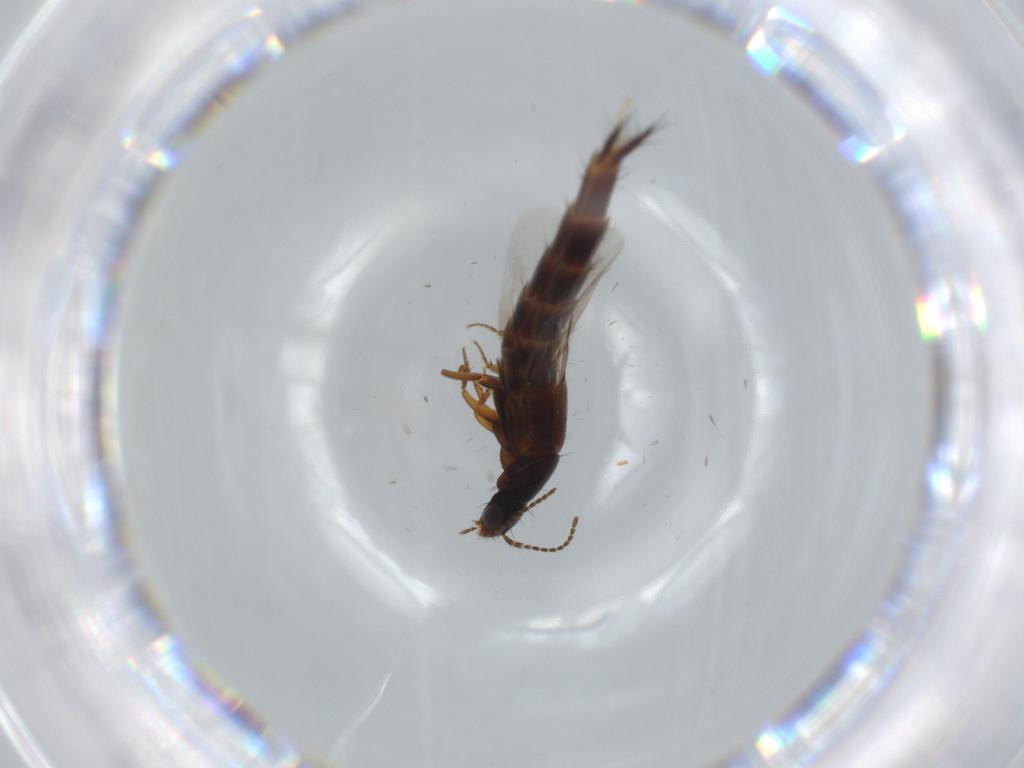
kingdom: Animalia
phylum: Arthropoda
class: Insecta
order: Coleoptera
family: Staphylinidae
